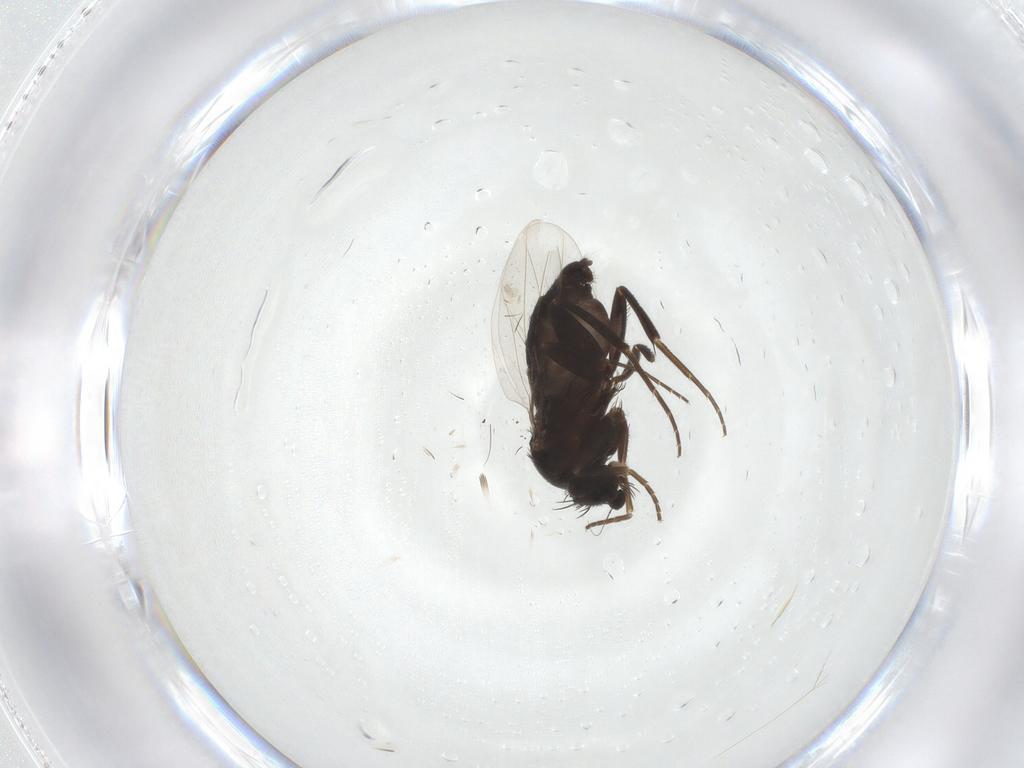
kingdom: Animalia
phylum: Arthropoda
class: Insecta
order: Diptera
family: Phoridae
